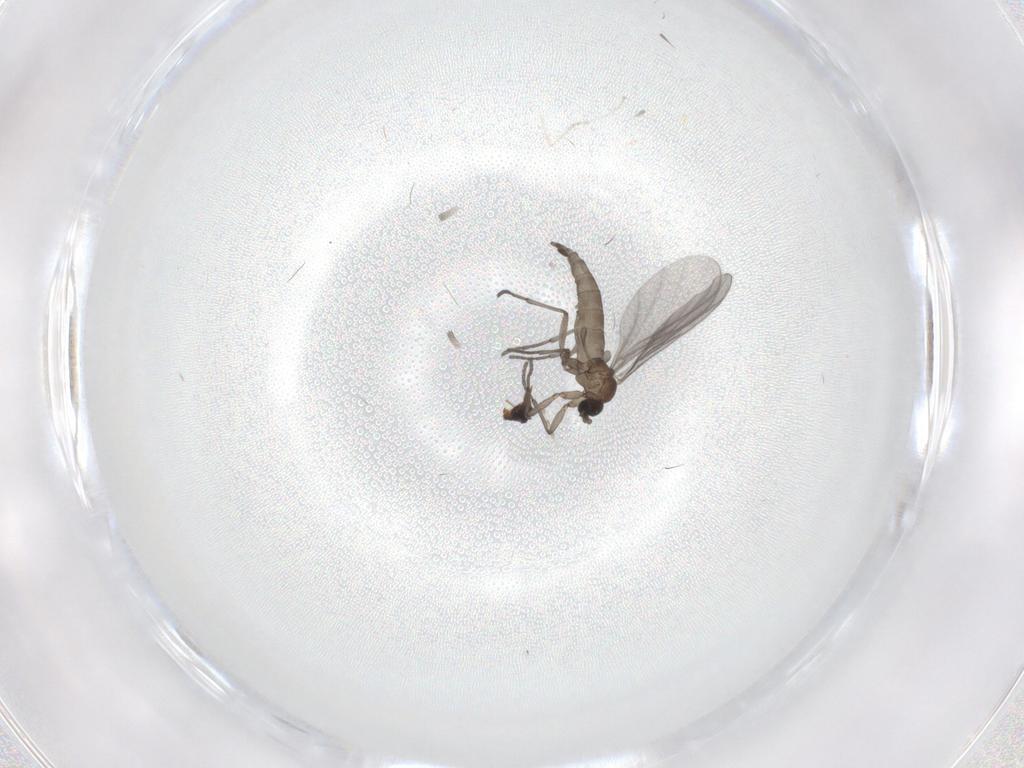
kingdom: Animalia
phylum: Arthropoda
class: Insecta
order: Diptera
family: Sciaridae
